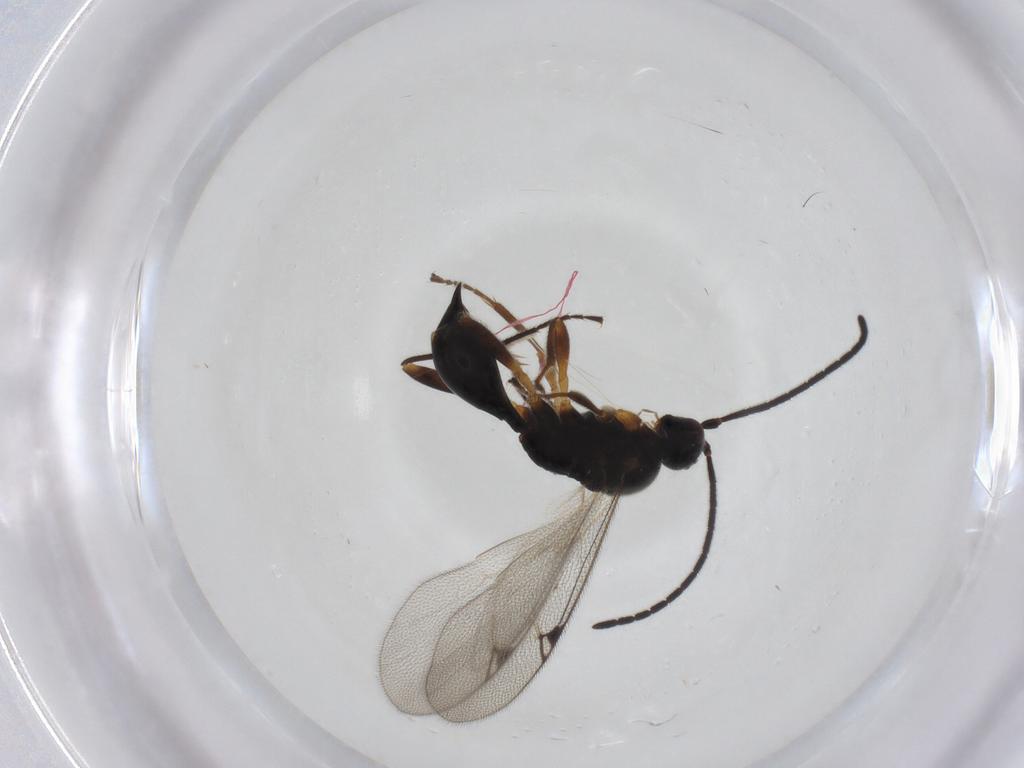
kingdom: Animalia
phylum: Arthropoda
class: Insecta
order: Hymenoptera
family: Proctotrupidae
